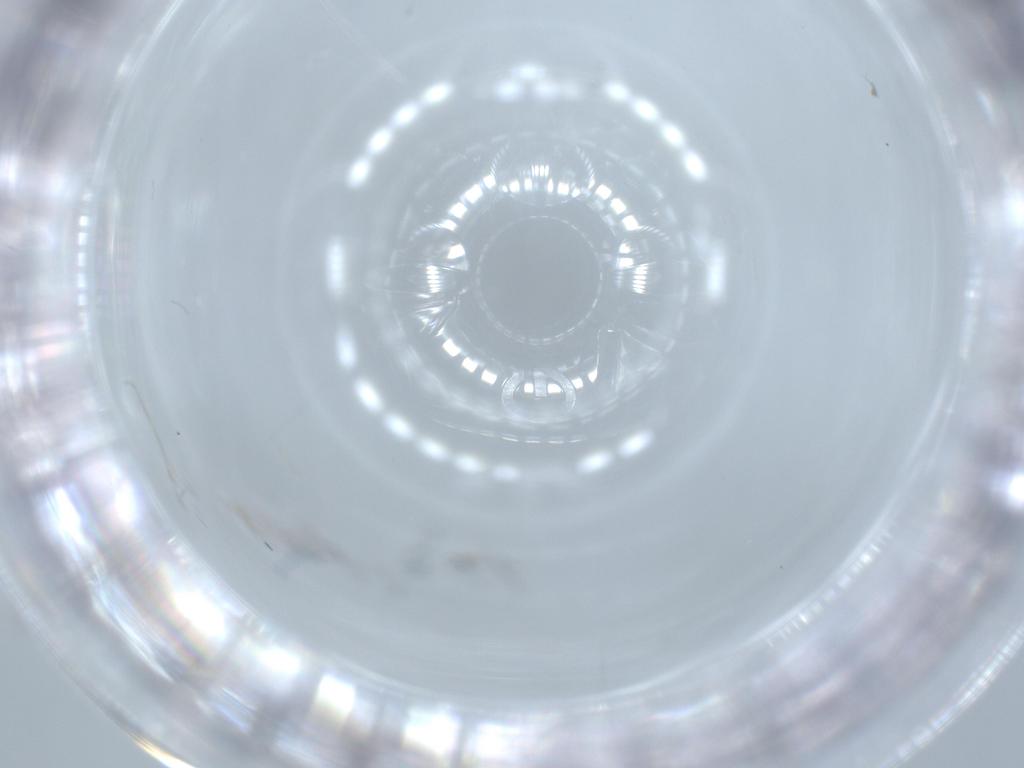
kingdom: Animalia
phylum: Arthropoda
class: Insecta
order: Diptera
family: Cecidomyiidae
